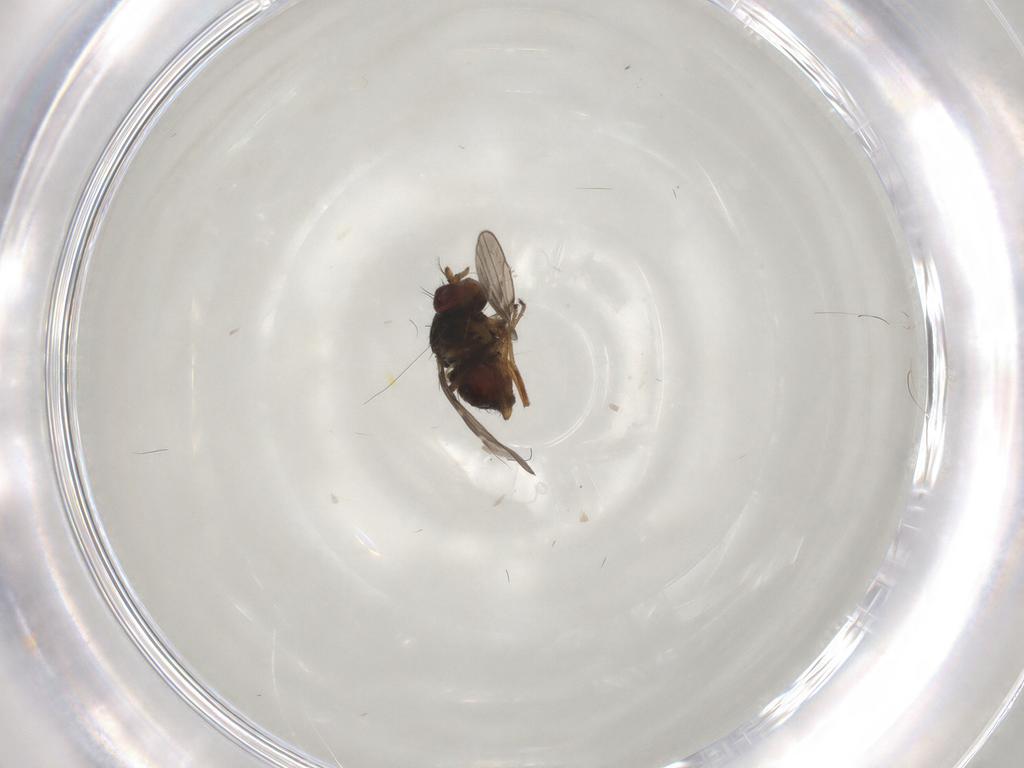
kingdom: Animalia
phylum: Arthropoda
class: Insecta
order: Diptera
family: Ephydridae
